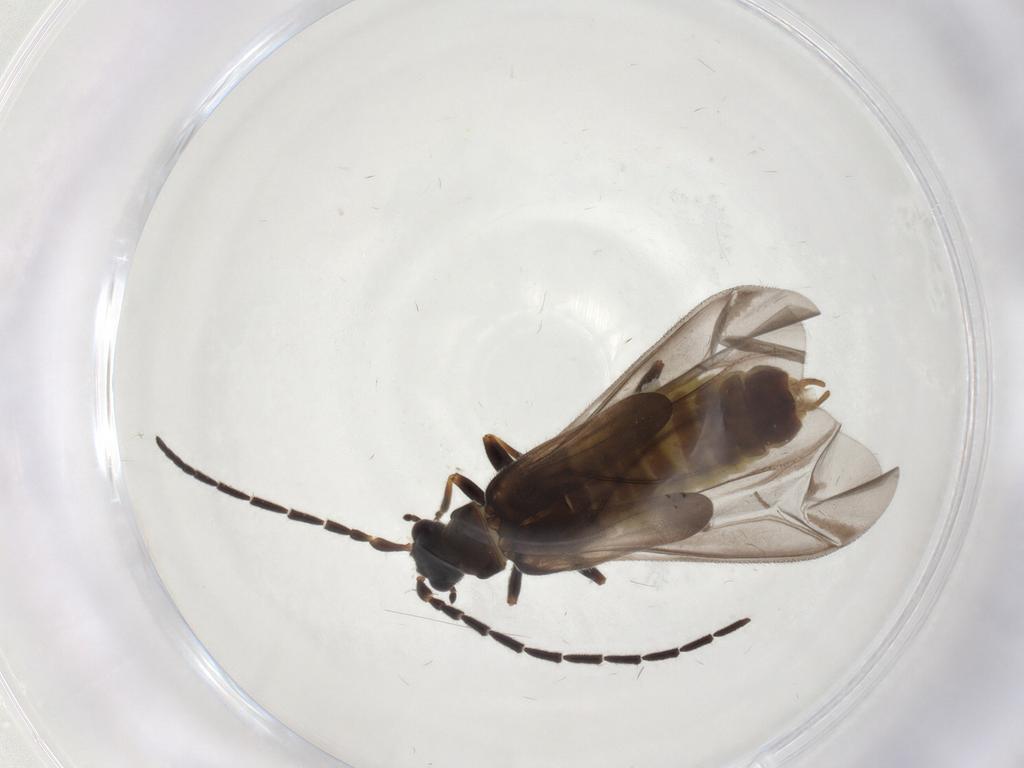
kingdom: Animalia
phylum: Arthropoda
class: Insecta
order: Coleoptera
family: Cantharidae
